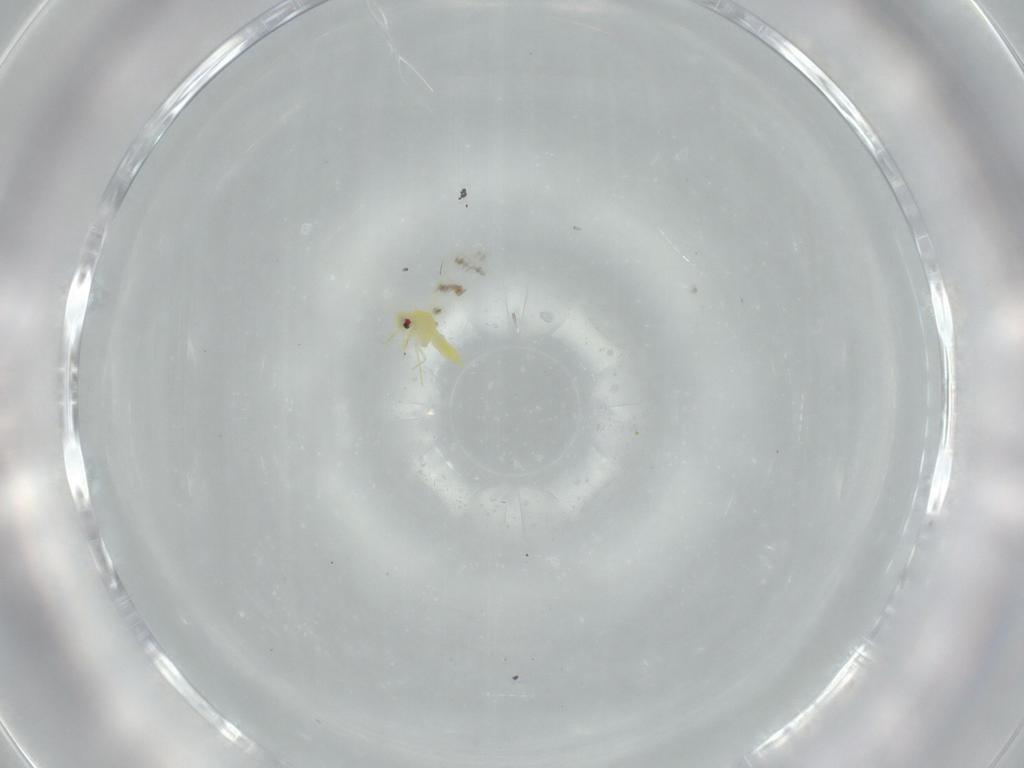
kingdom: Animalia
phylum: Arthropoda
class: Insecta
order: Hemiptera
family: Aleyrodidae
